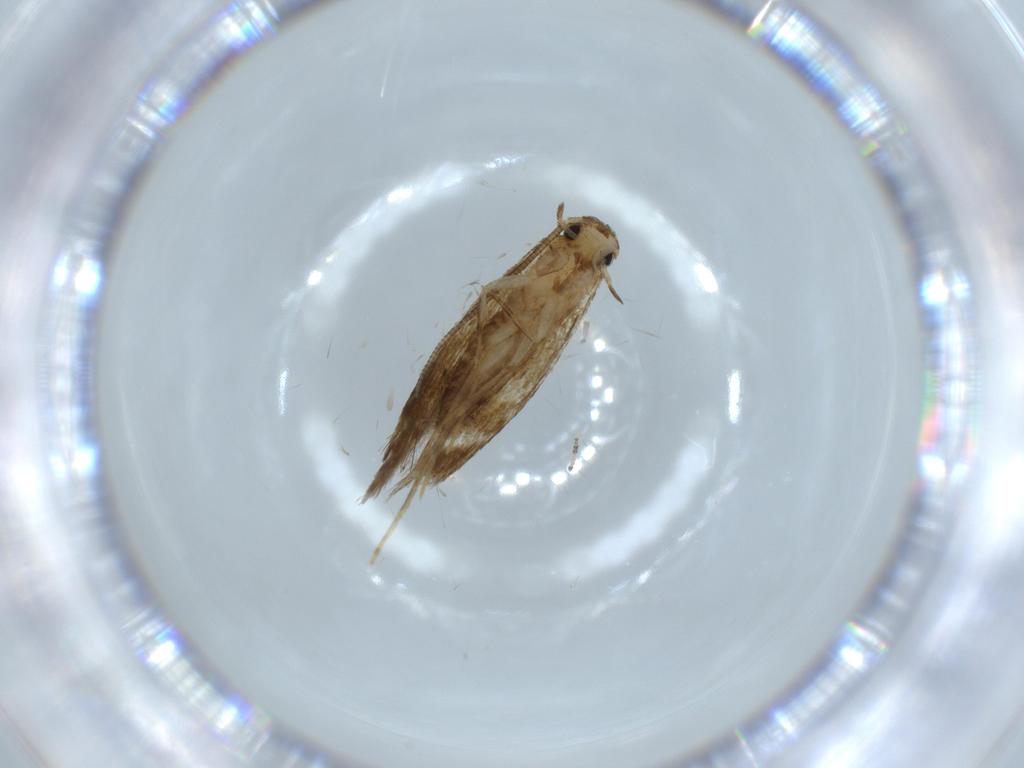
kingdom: Animalia
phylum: Arthropoda
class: Insecta
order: Lepidoptera
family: Tineidae
